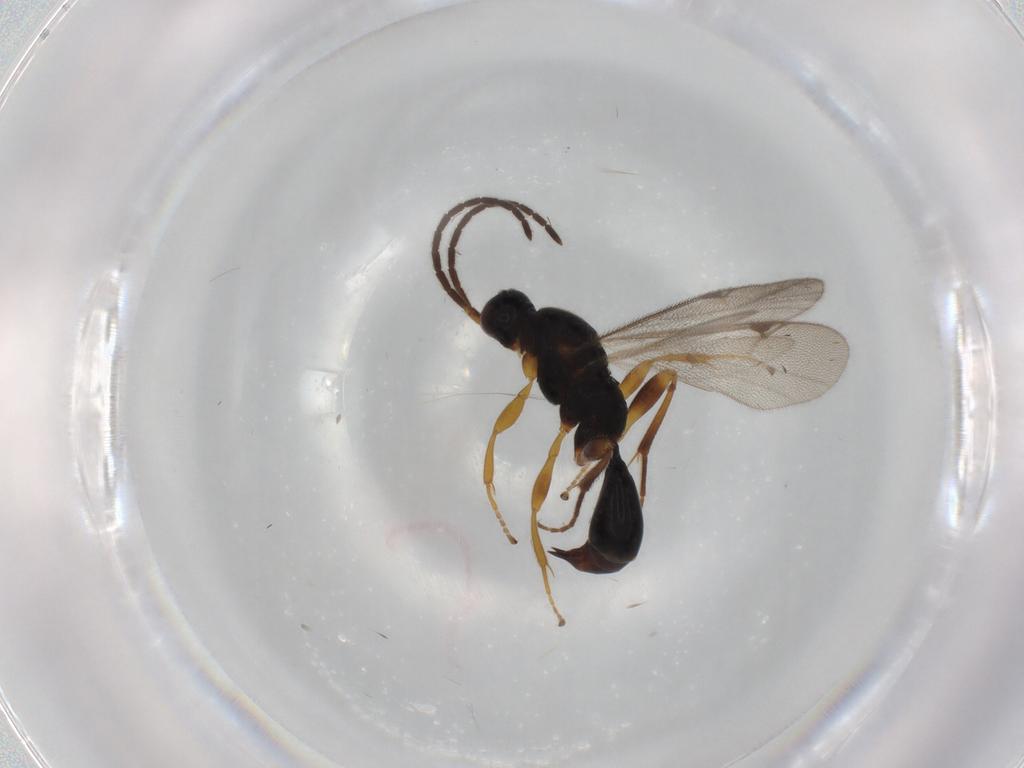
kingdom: Animalia
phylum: Arthropoda
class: Insecta
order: Hymenoptera
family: Proctotrupidae
